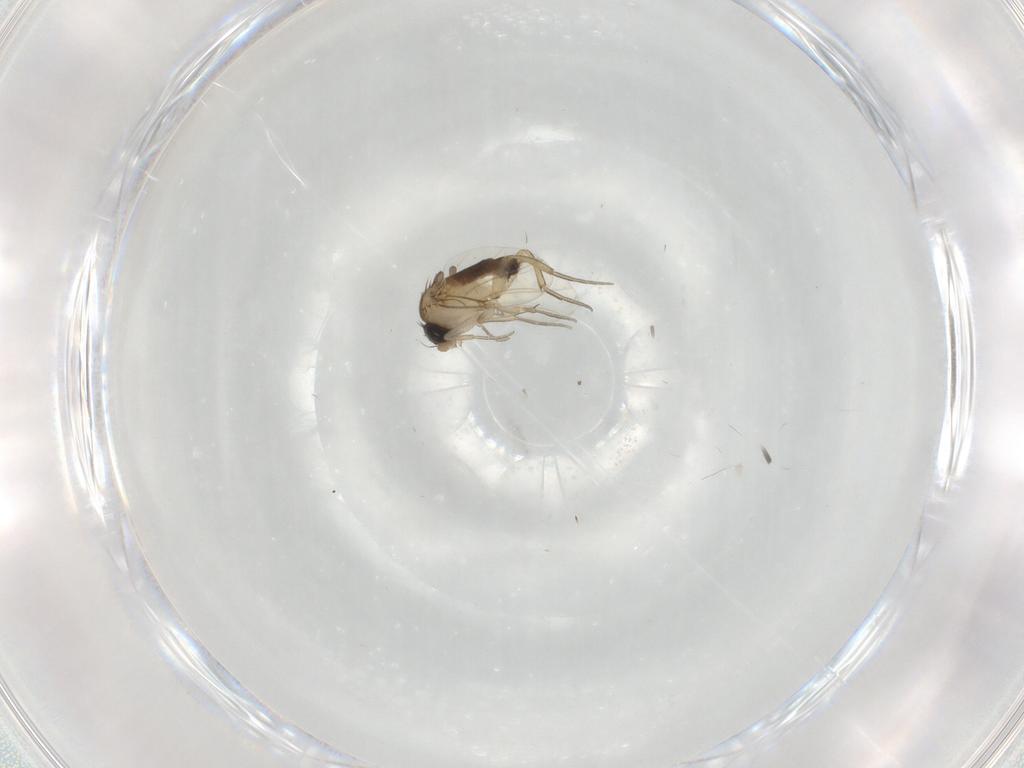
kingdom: Animalia
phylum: Arthropoda
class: Insecta
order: Diptera
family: Phoridae
